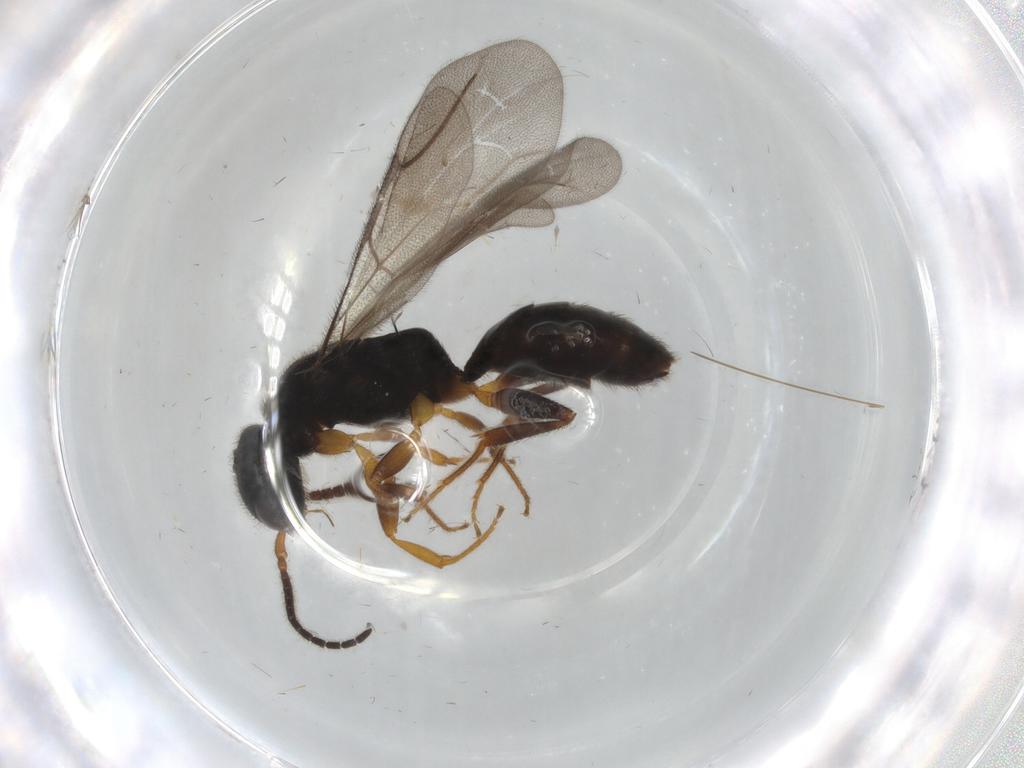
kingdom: Animalia
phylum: Arthropoda
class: Insecta
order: Hymenoptera
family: Bethylidae
